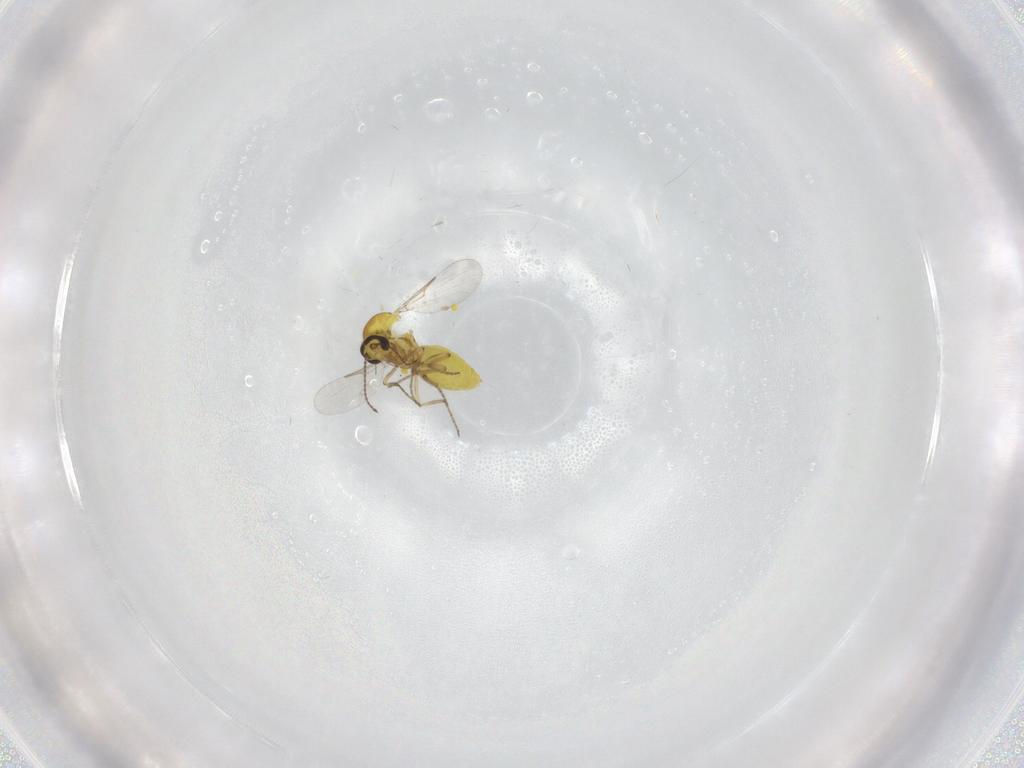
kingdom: Animalia
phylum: Arthropoda
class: Insecta
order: Diptera
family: Ceratopogonidae
